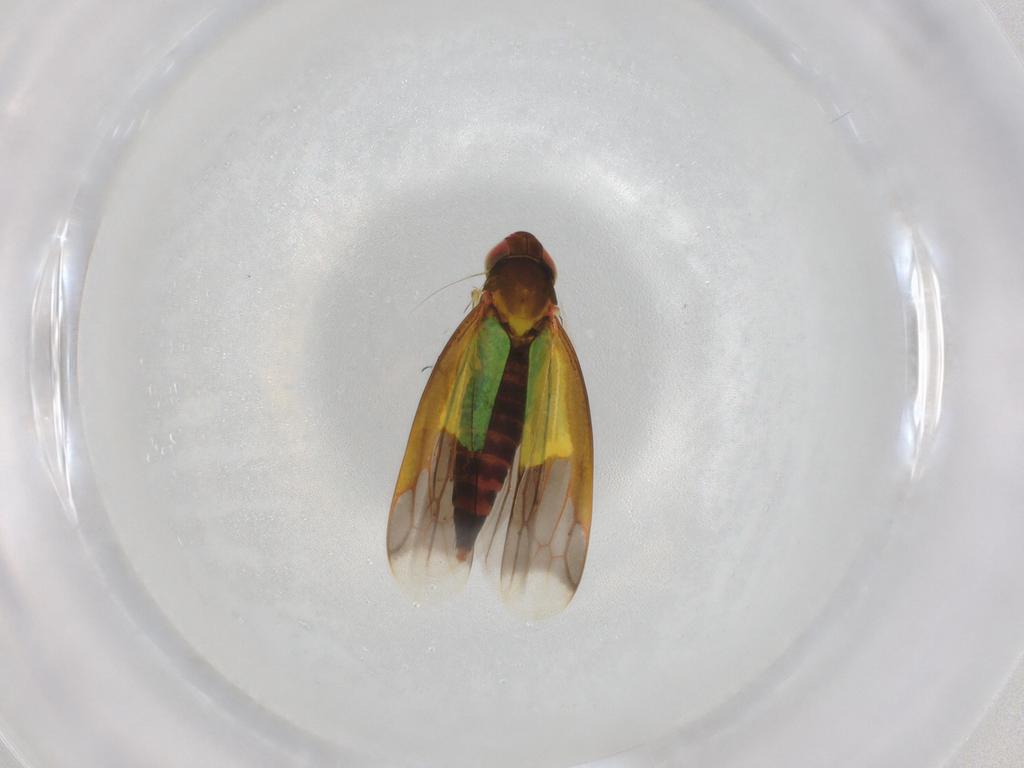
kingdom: Animalia
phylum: Arthropoda
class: Insecta
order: Hemiptera
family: Cicadellidae
